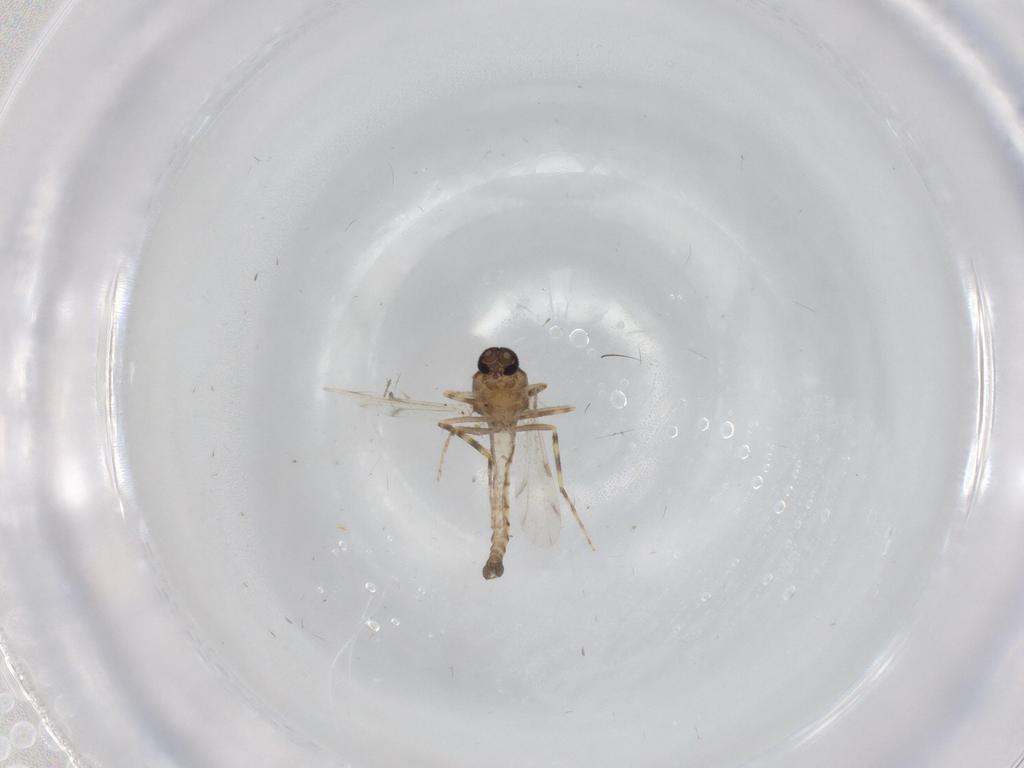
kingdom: Animalia
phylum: Arthropoda
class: Insecta
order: Diptera
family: Ceratopogonidae
